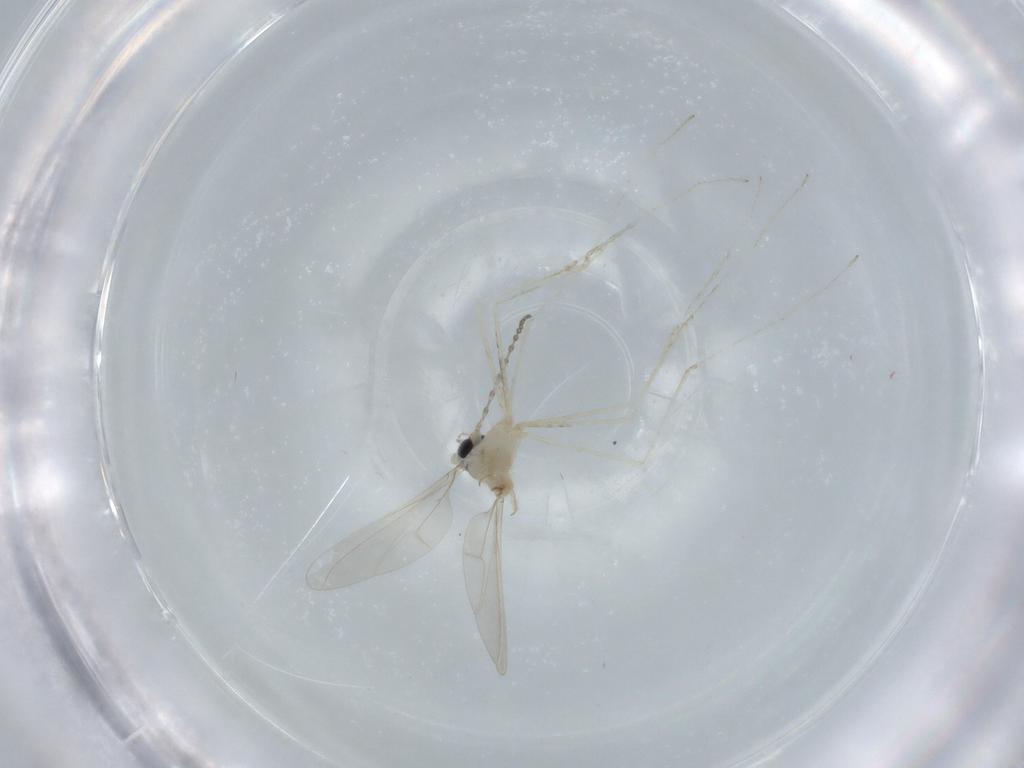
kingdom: Animalia
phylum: Arthropoda
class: Insecta
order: Diptera
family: Cecidomyiidae
